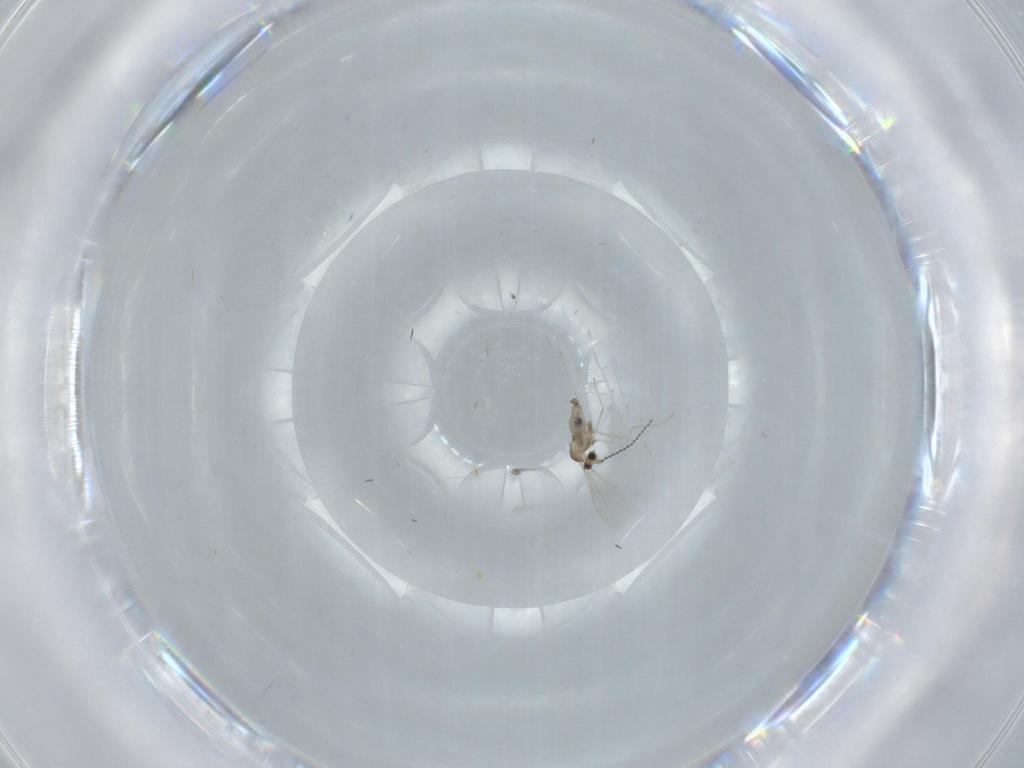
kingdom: Animalia
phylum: Arthropoda
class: Insecta
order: Diptera
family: Cecidomyiidae
